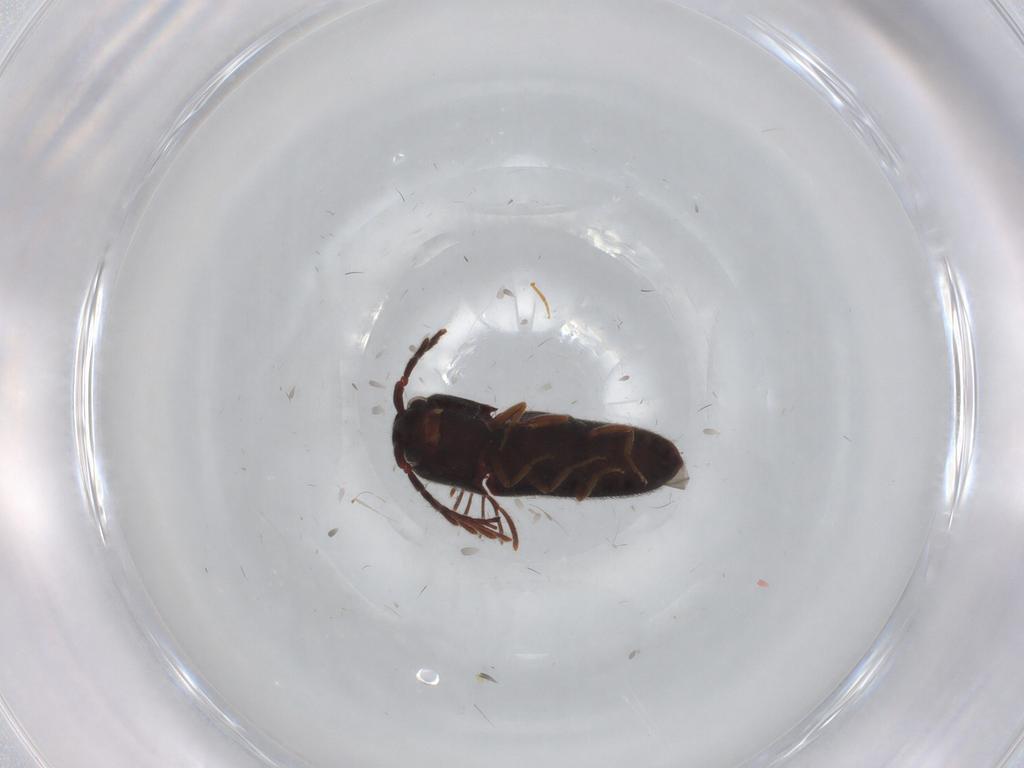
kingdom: Animalia
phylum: Arthropoda
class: Insecta
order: Coleoptera
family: Eucnemidae
